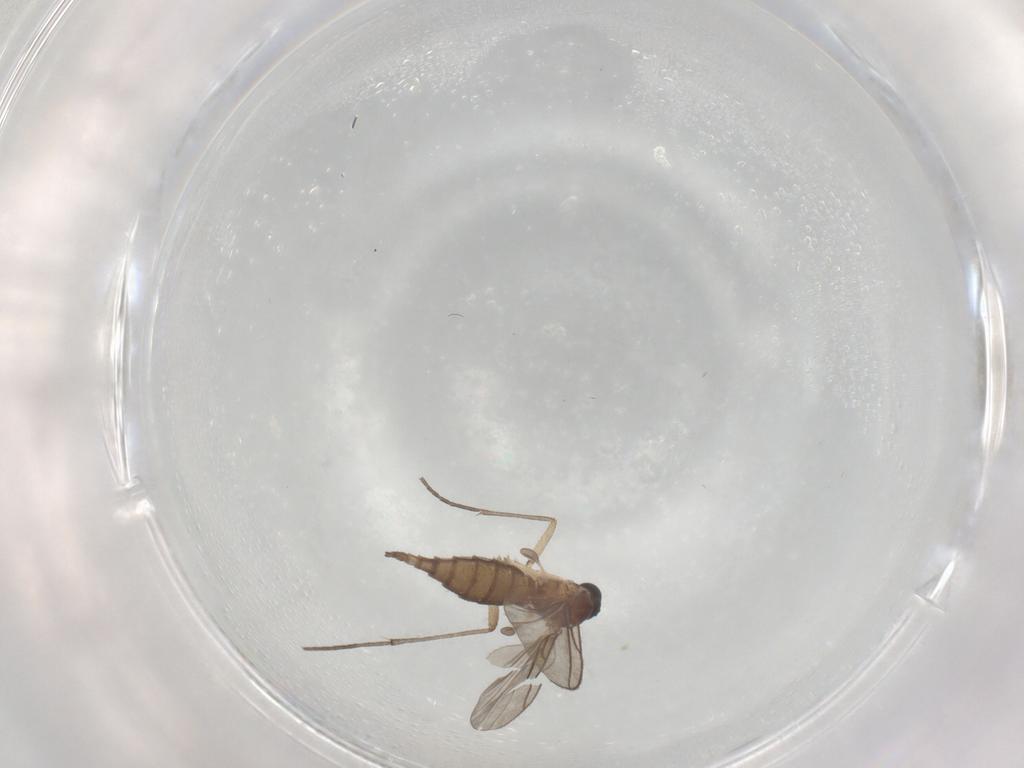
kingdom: Animalia
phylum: Arthropoda
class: Insecta
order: Diptera
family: Sciaridae
